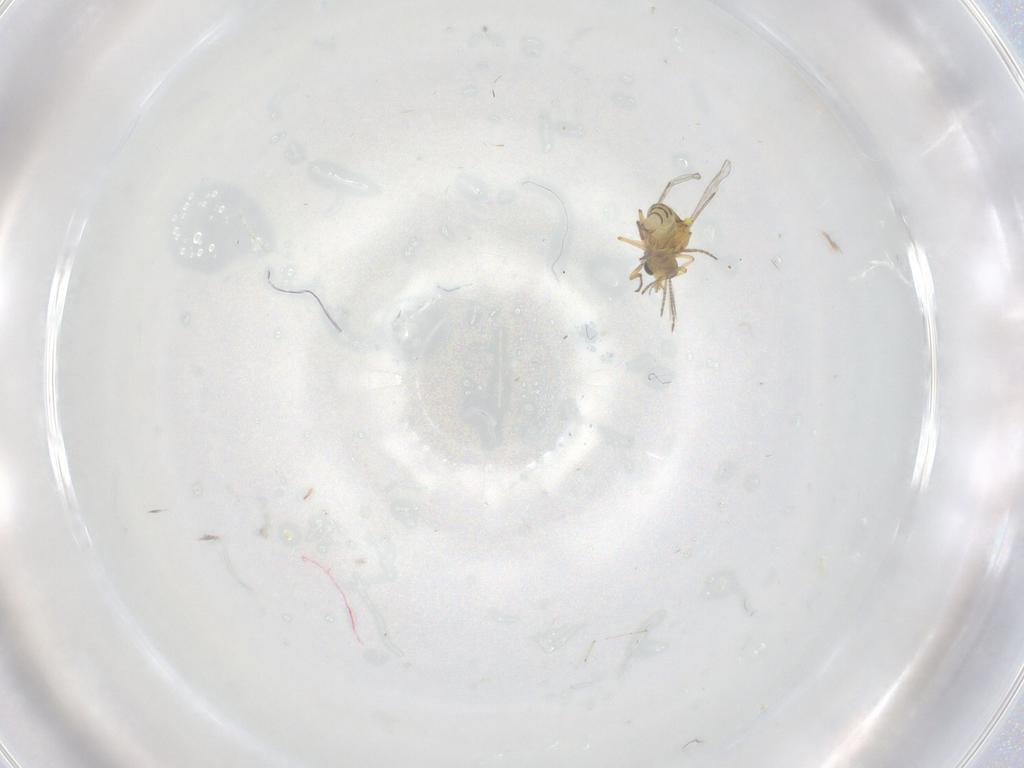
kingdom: Animalia
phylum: Arthropoda
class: Insecta
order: Diptera
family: Ceratopogonidae
